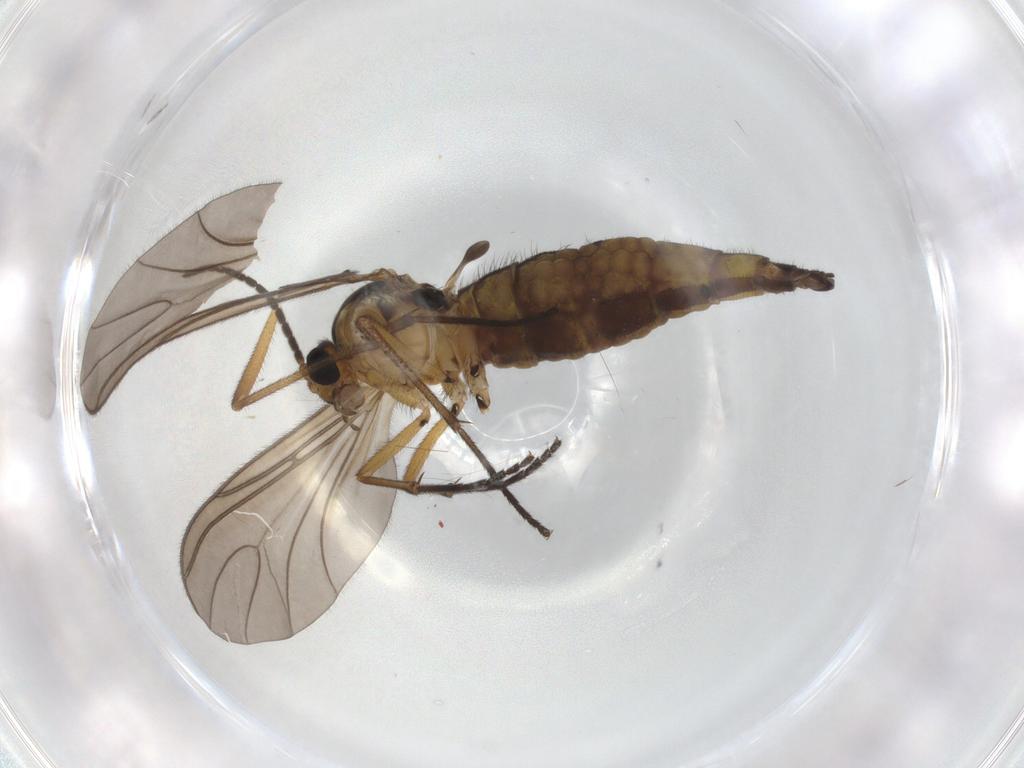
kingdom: Animalia
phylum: Arthropoda
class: Insecta
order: Diptera
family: Sciaridae
